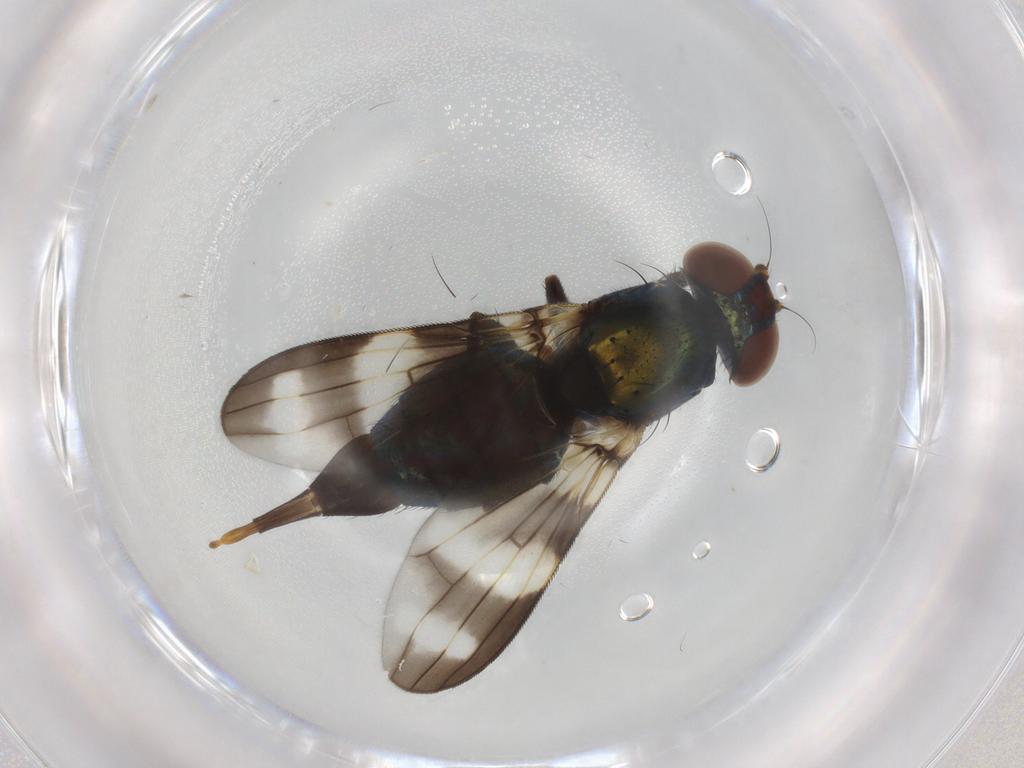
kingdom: Animalia
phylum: Arthropoda
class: Insecta
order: Diptera
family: Ulidiidae
